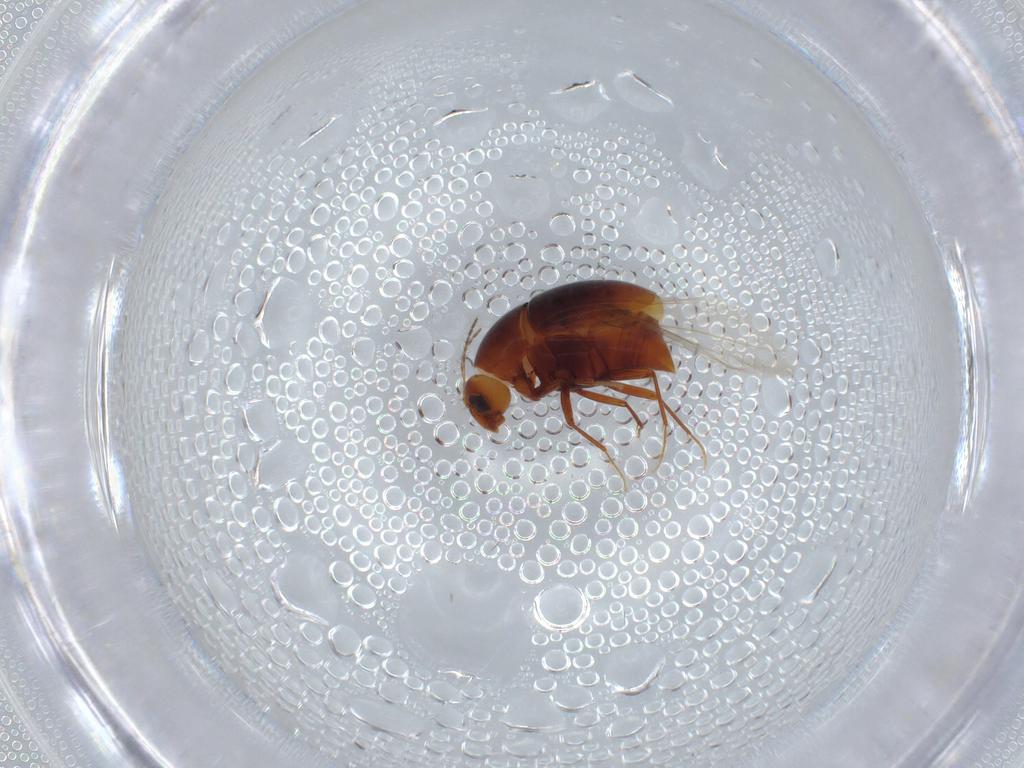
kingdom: Animalia
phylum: Arthropoda
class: Insecta
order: Coleoptera
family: Staphylinidae
